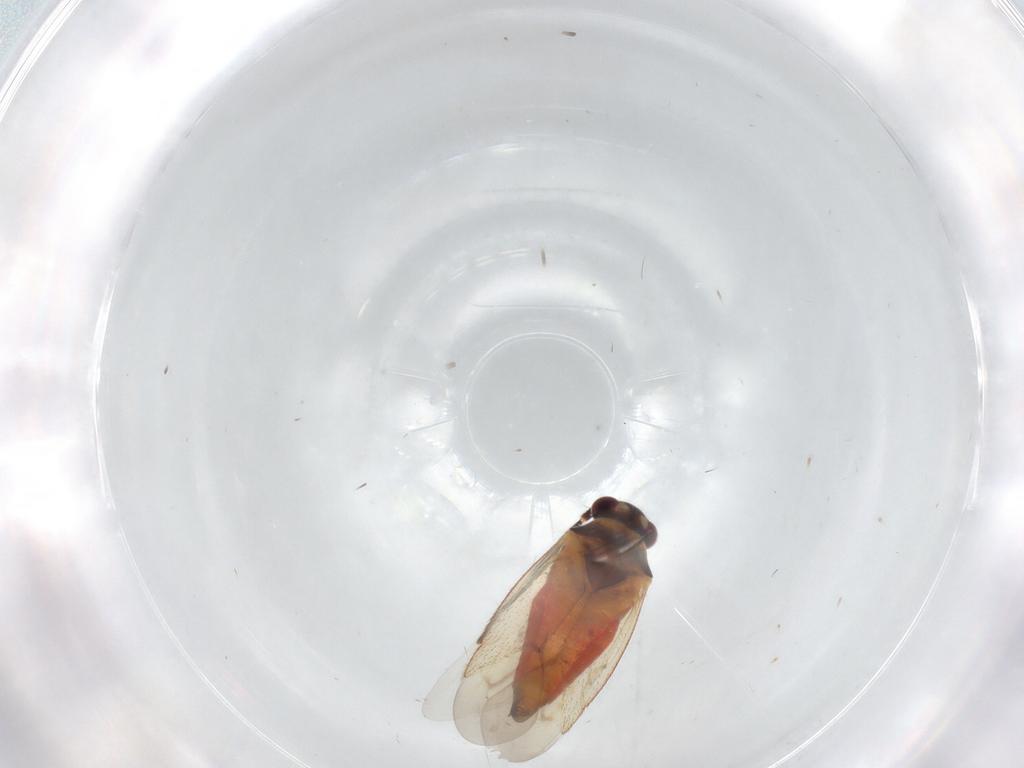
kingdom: Animalia
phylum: Arthropoda
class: Insecta
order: Hemiptera
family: Miridae
